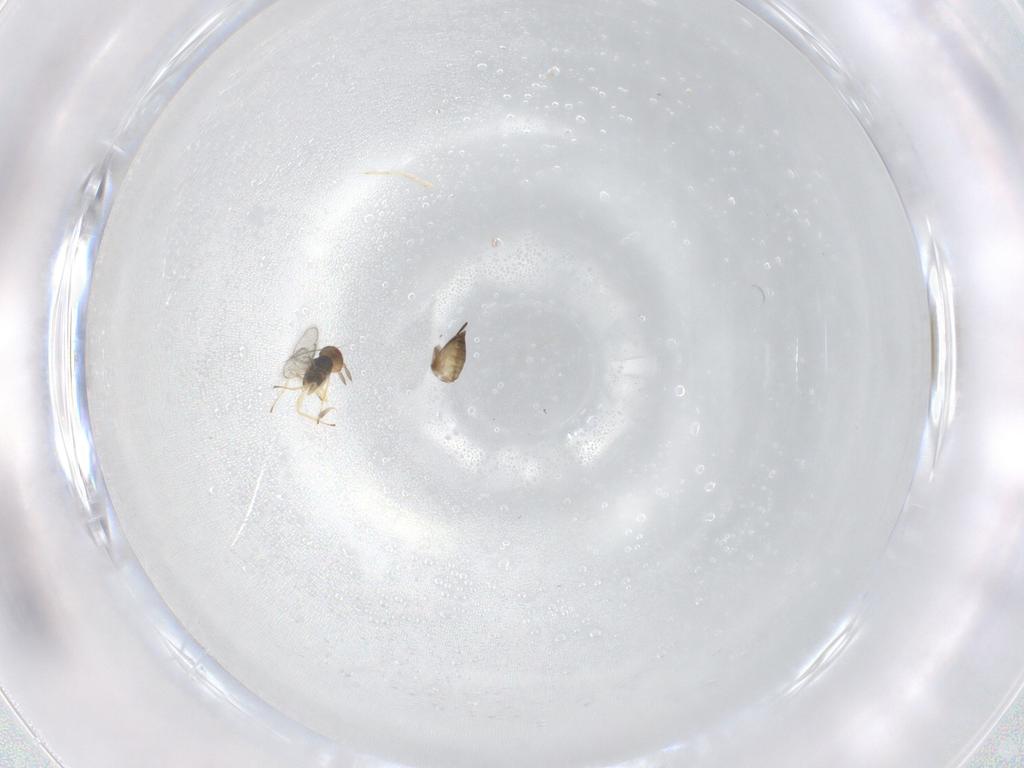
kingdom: Animalia
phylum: Arthropoda
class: Insecta
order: Hymenoptera
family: Eulophidae
